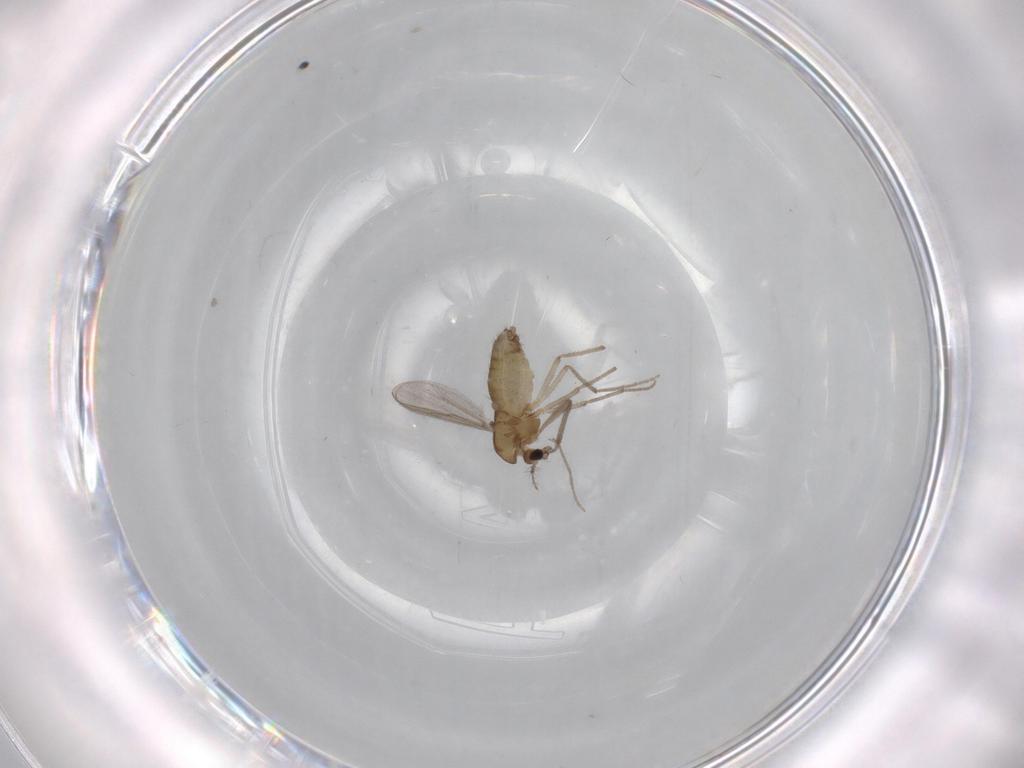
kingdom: Animalia
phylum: Arthropoda
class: Insecta
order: Diptera
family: Chironomidae
